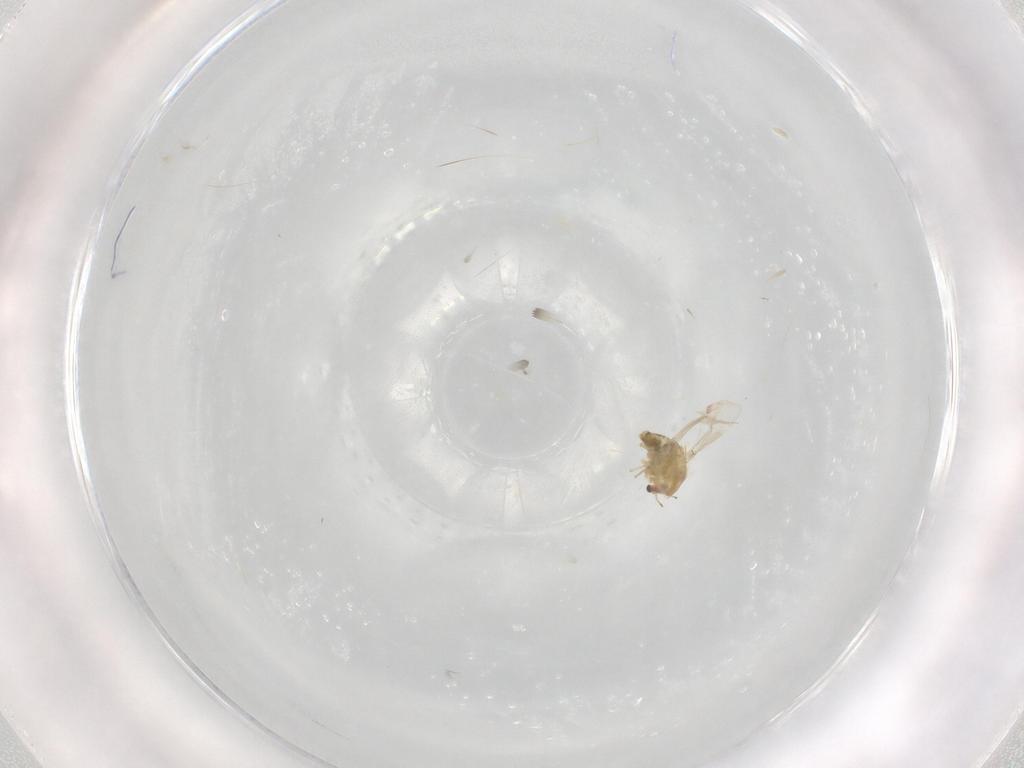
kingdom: Animalia
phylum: Arthropoda
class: Insecta
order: Diptera
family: Chironomidae
